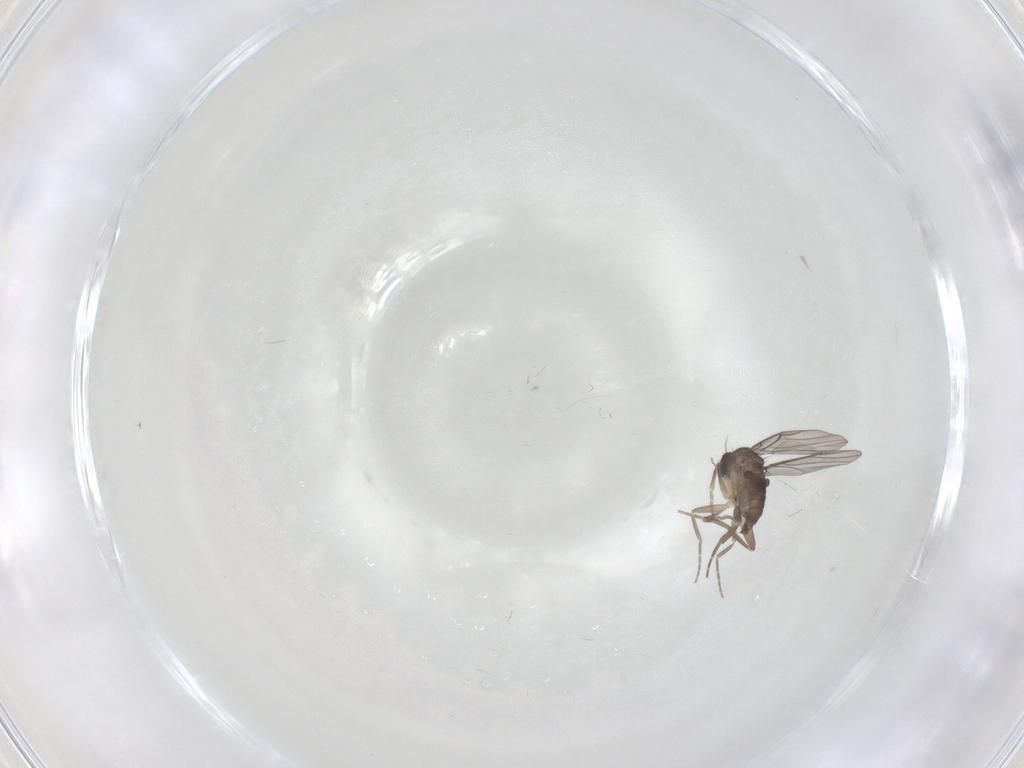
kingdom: Animalia
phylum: Arthropoda
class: Insecta
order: Diptera
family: Phoridae
